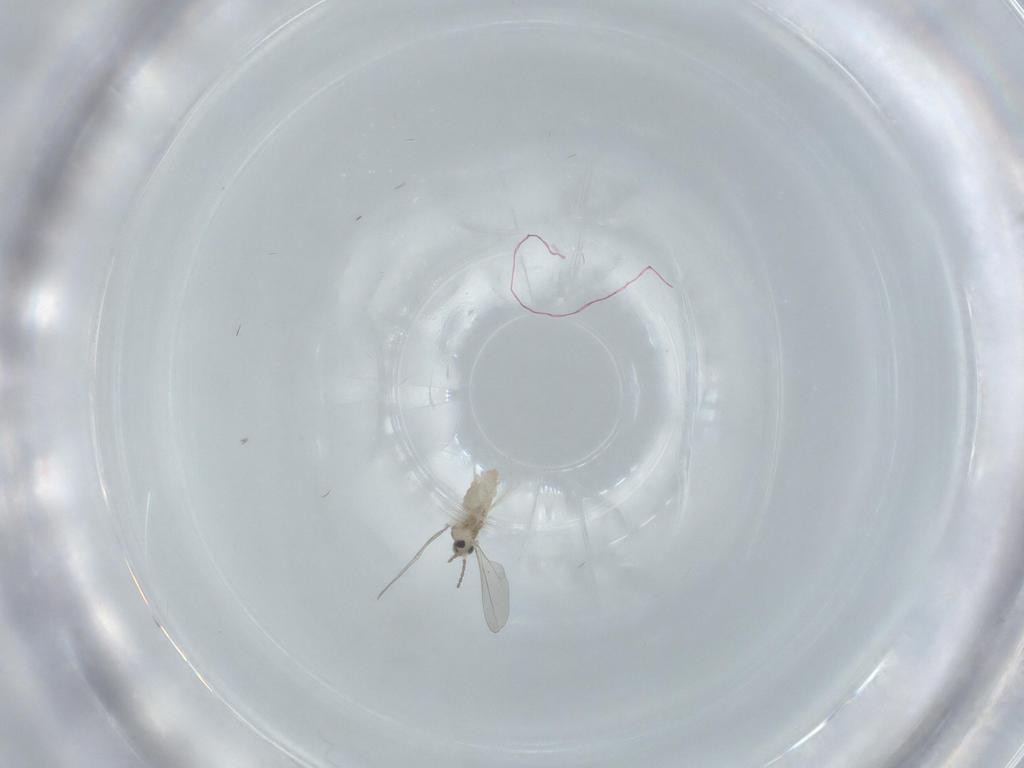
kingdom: Animalia
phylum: Arthropoda
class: Insecta
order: Diptera
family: Cecidomyiidae
